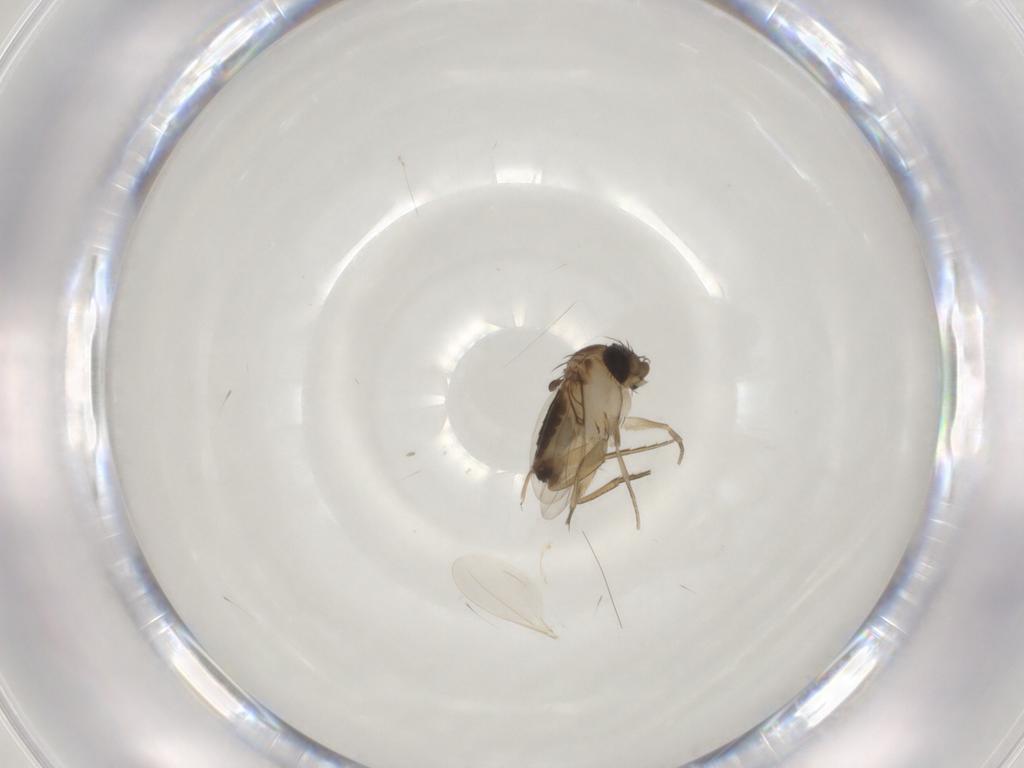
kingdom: Animalia
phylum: Arthropoda
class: Insecta
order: Diptera
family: Phoridae
